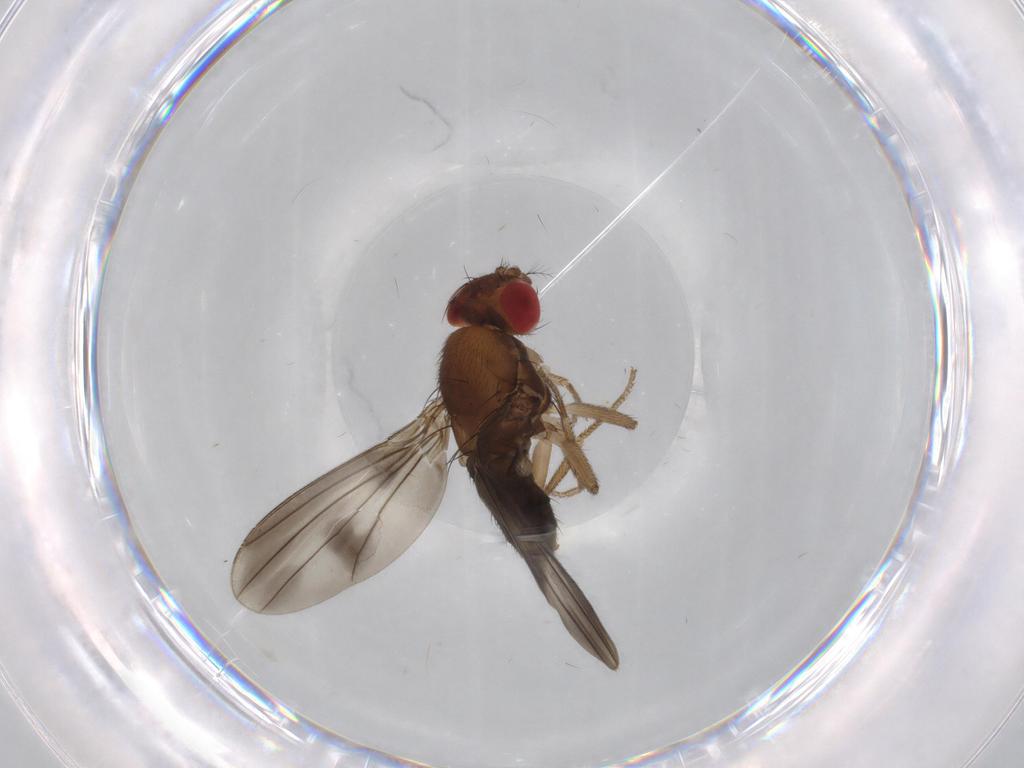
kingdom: Animalia
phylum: Arthropoda
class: Insecta
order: Diptera
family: Drosophilidae
